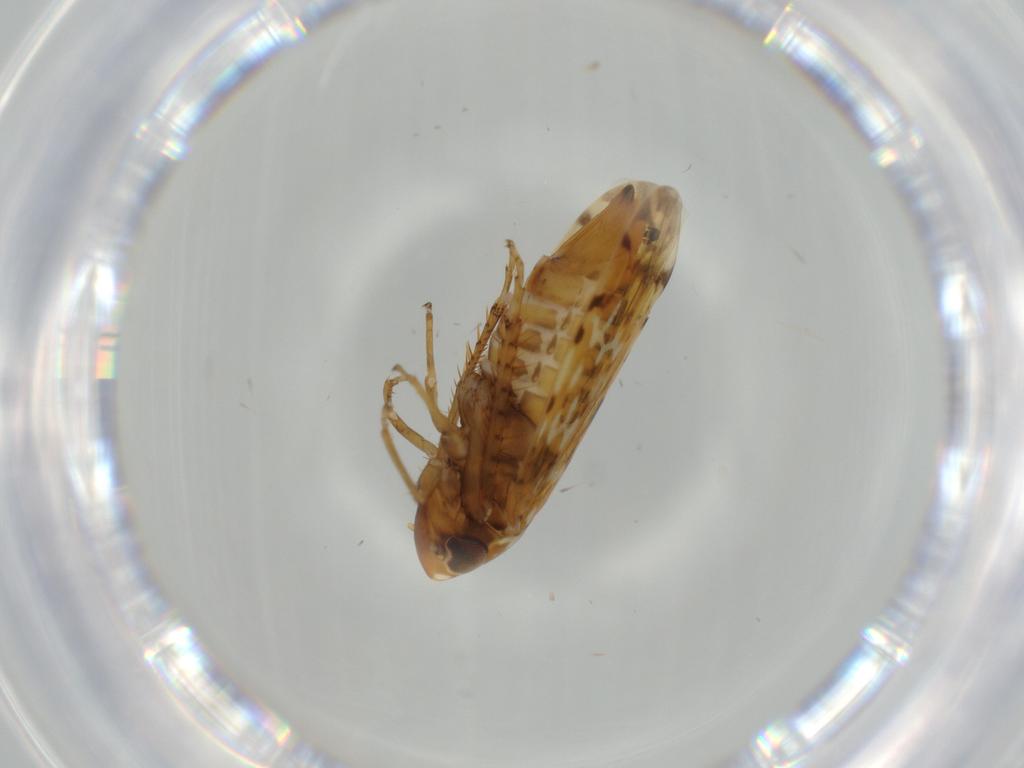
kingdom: Animalia
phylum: Arthropoda
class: Insecta
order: Hemiptera
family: Cicadellidae
